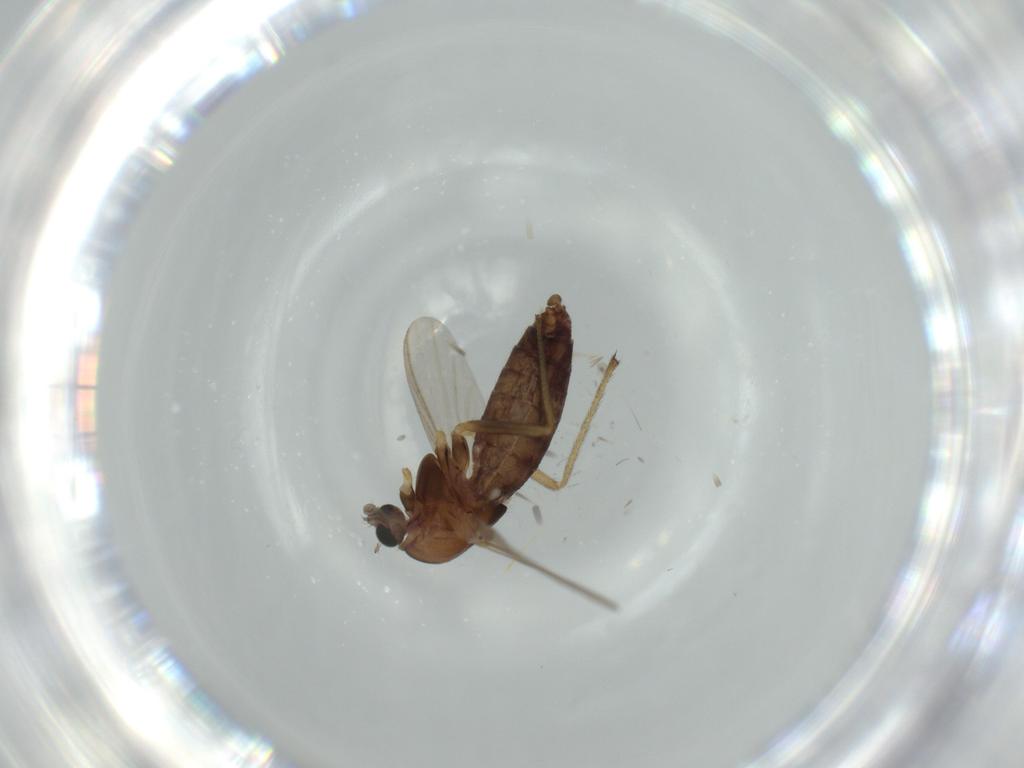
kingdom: Animalia
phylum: Arthropoda
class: Insecta
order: Diptera
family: Chironomidae
